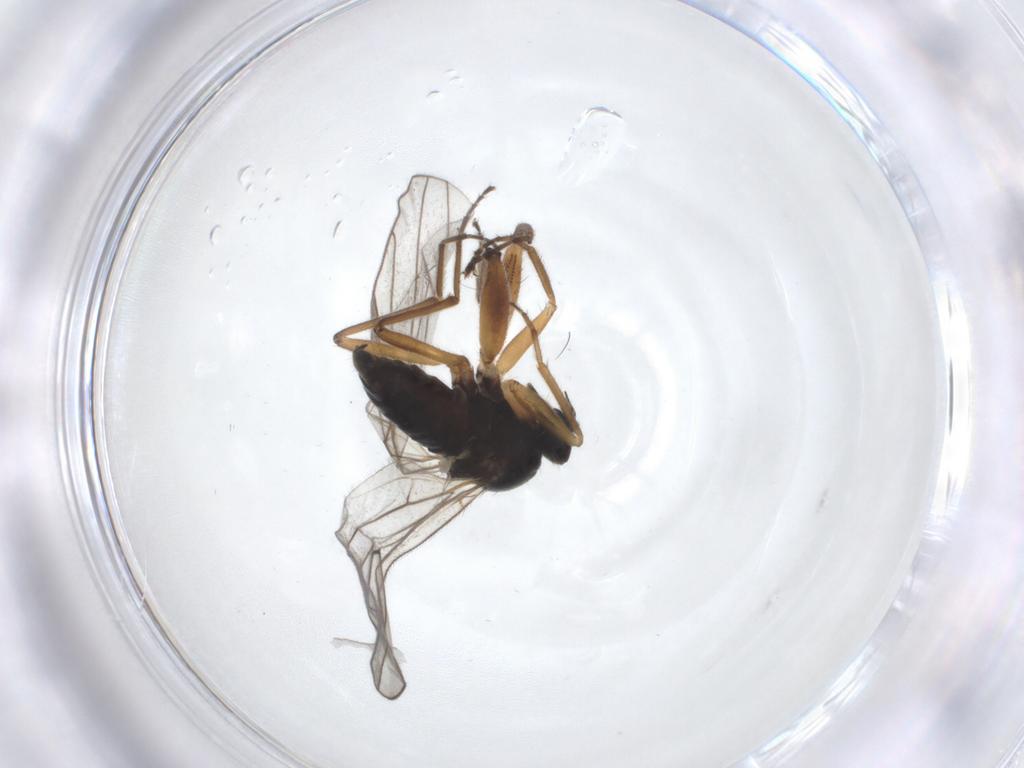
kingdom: Animalia
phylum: Arthropoda
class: Insecta
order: Diptera
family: Hybotidae
